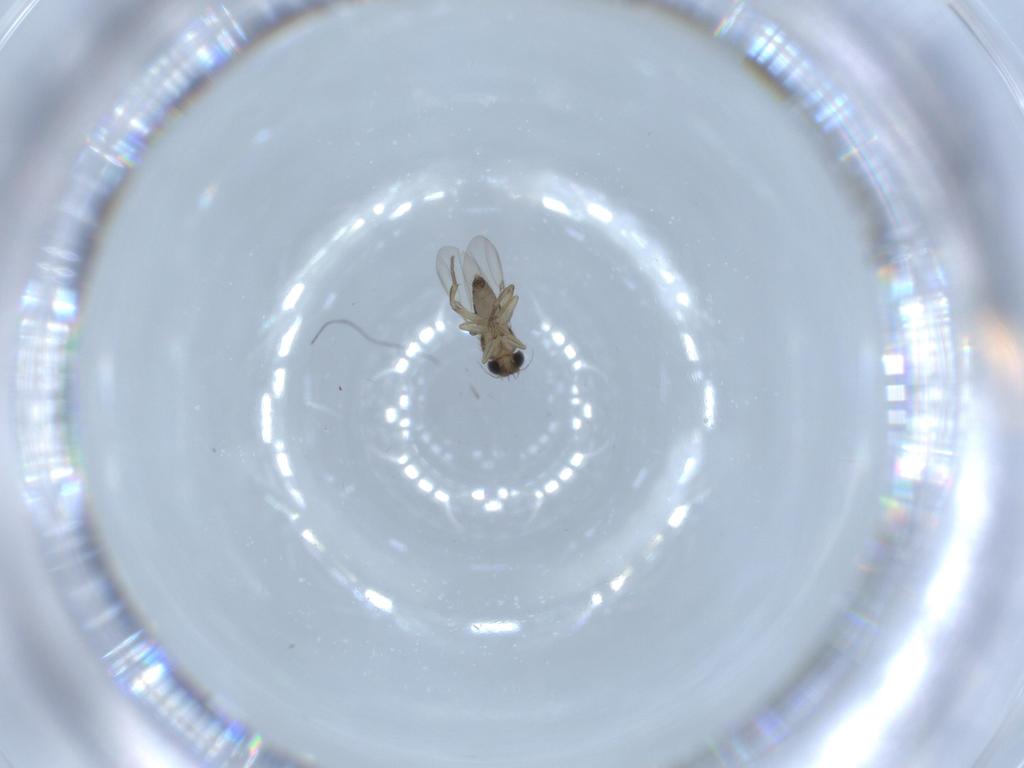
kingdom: Animalia
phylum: Arthropoda
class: Insecta
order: Diptera
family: Phoridae
